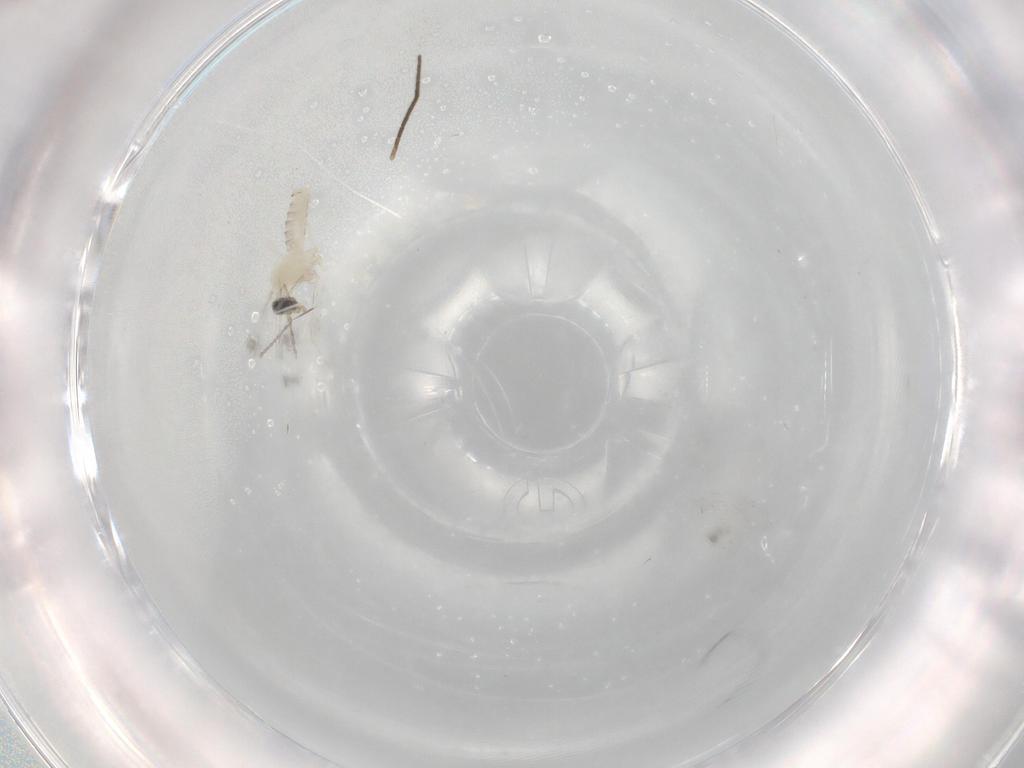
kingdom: Animalia
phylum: Arthropoda
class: Insecta
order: Diptera
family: Cecidomyiidae
